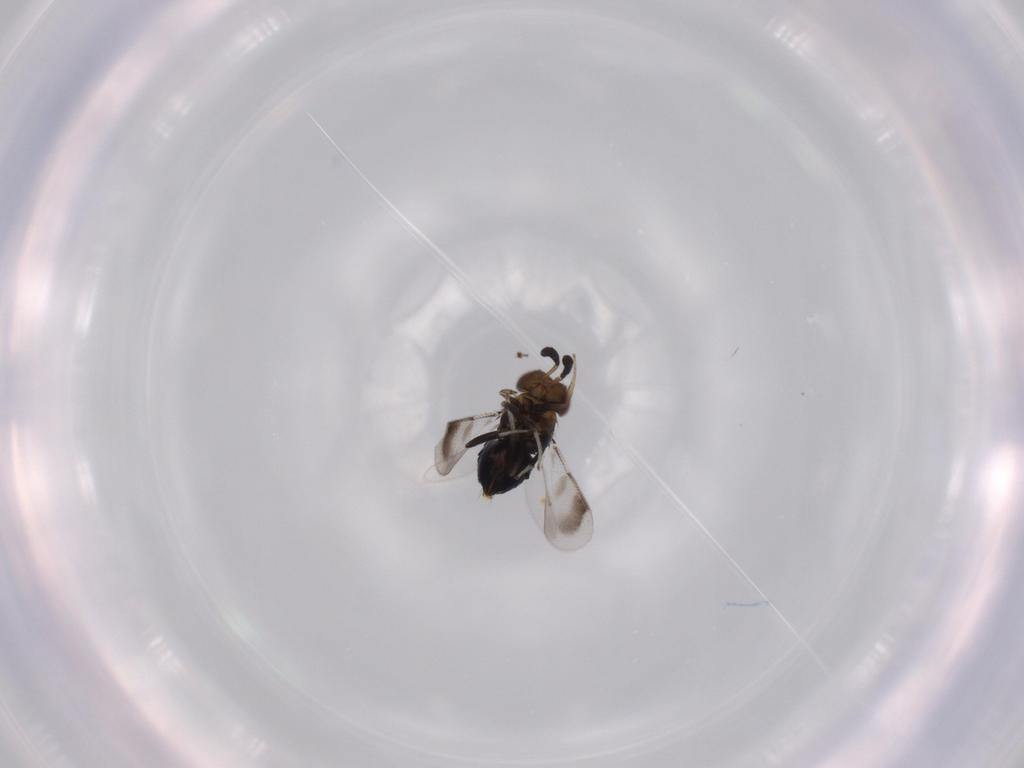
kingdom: Animalia
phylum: Arthropoda
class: Insecta
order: Hymenoptera
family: Aphelinidae
